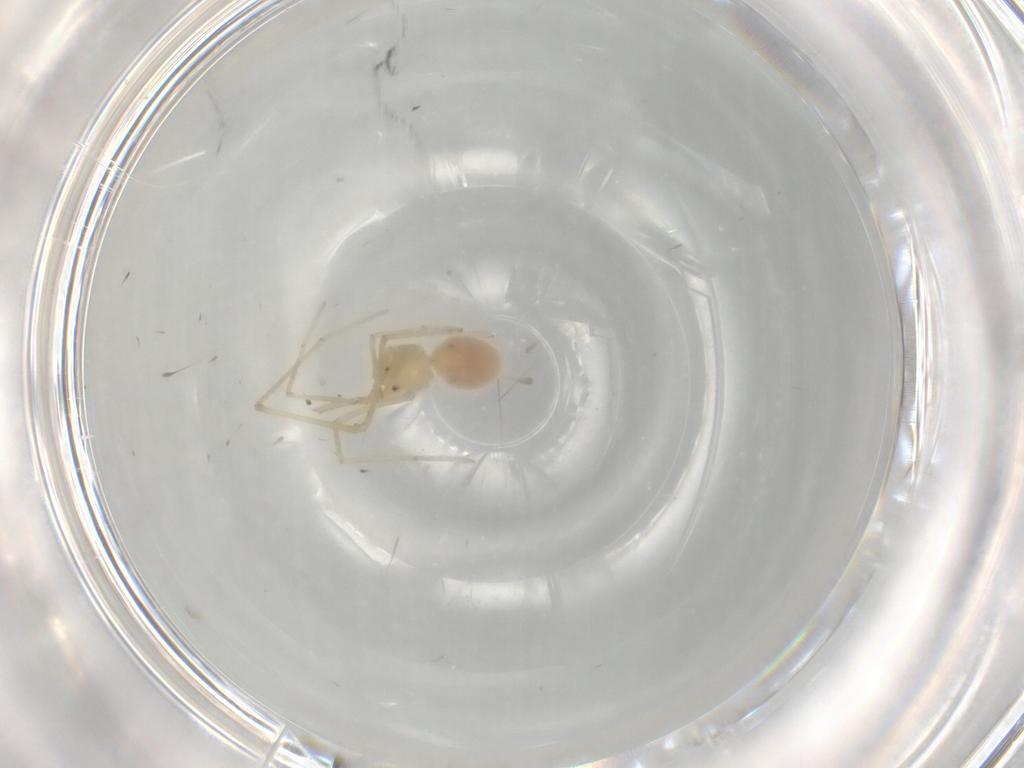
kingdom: Animalia
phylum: Arthropoda
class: Arachnida
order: Araneae
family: Pholcidae
